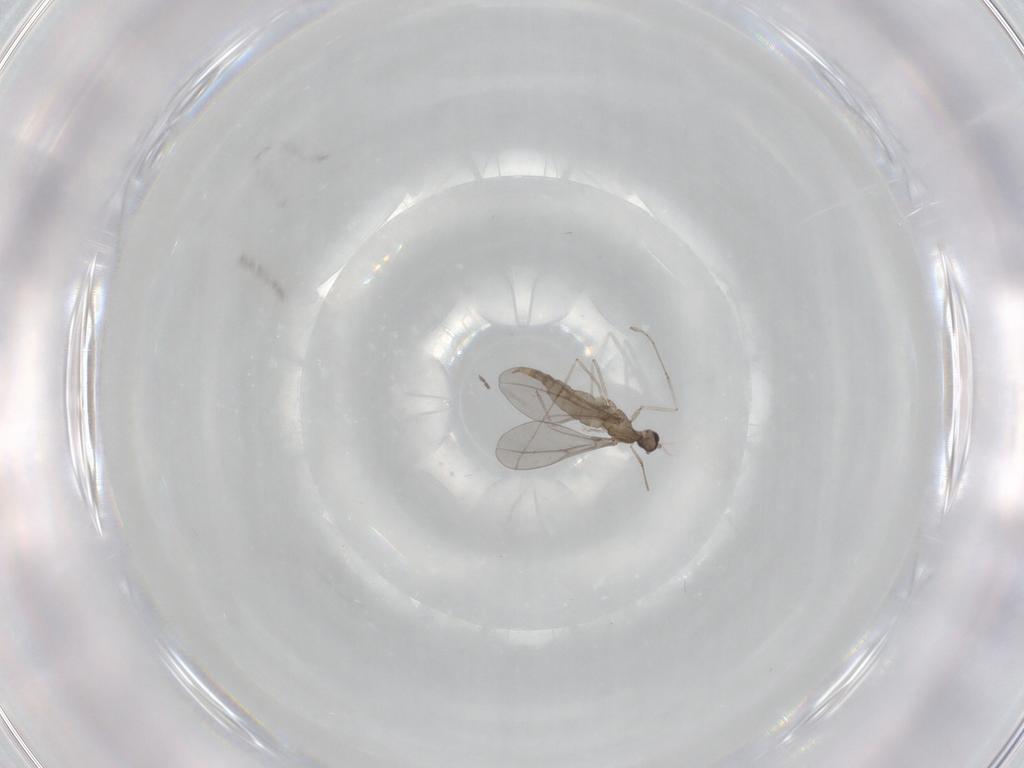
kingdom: Animalia
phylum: Arthropoda
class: Insecta
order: Diptera
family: Cecidomyiidae
